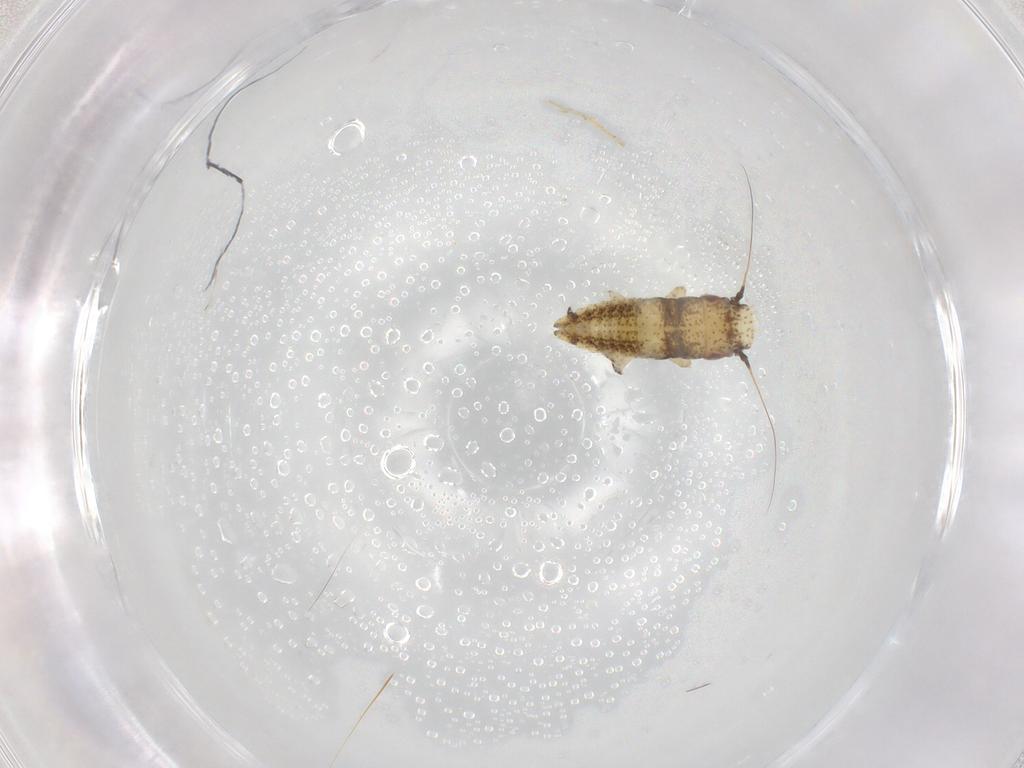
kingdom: Animalia
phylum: Arthropoda
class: Insecta
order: Hemiptera
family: Cicadellidae
